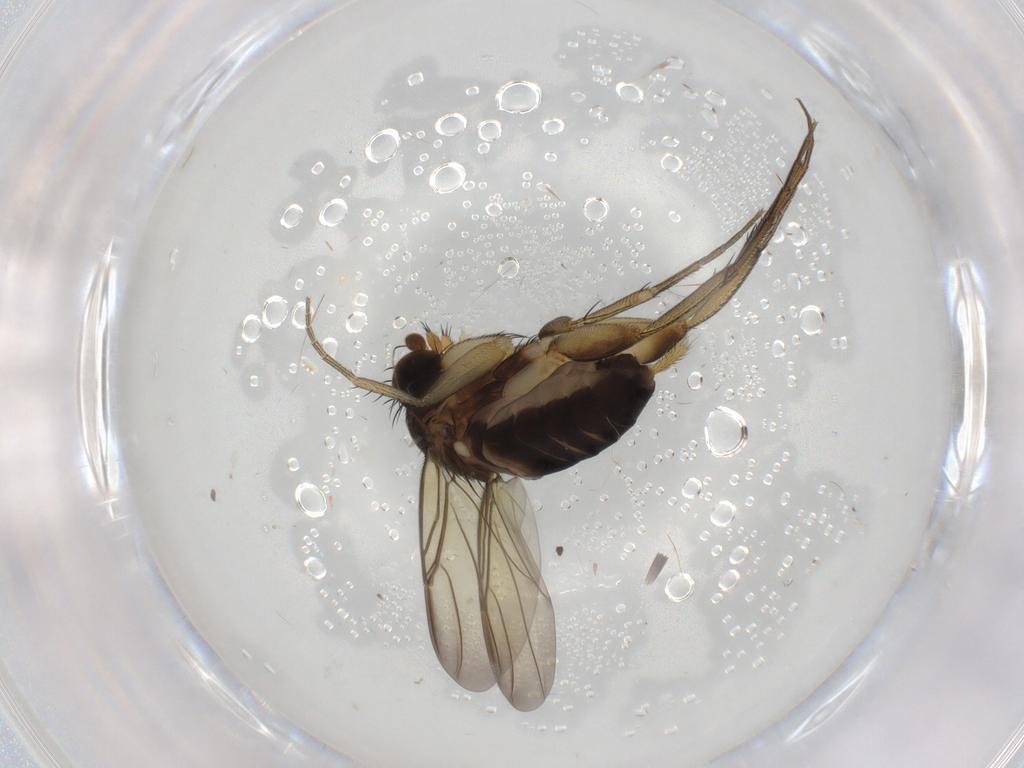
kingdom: Animalia
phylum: Arthropoda
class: Insecta
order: Diptera
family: Phoridae
